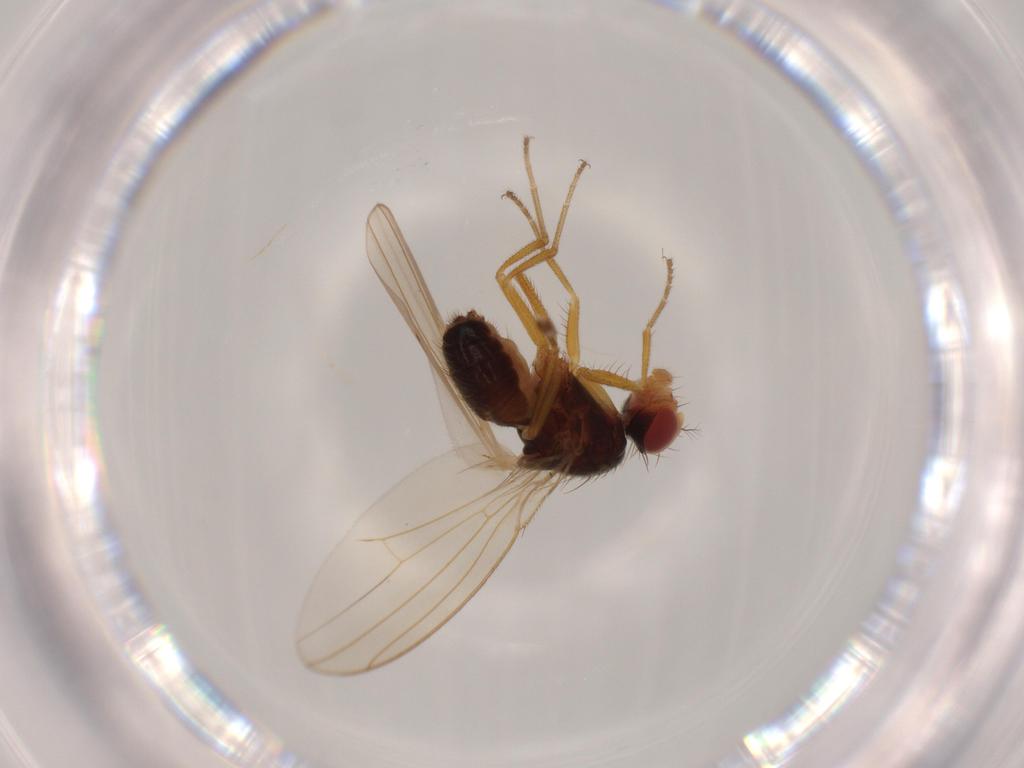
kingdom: Animalia
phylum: Arthropoda
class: Insecta
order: Diptera
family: Drosophilidae
